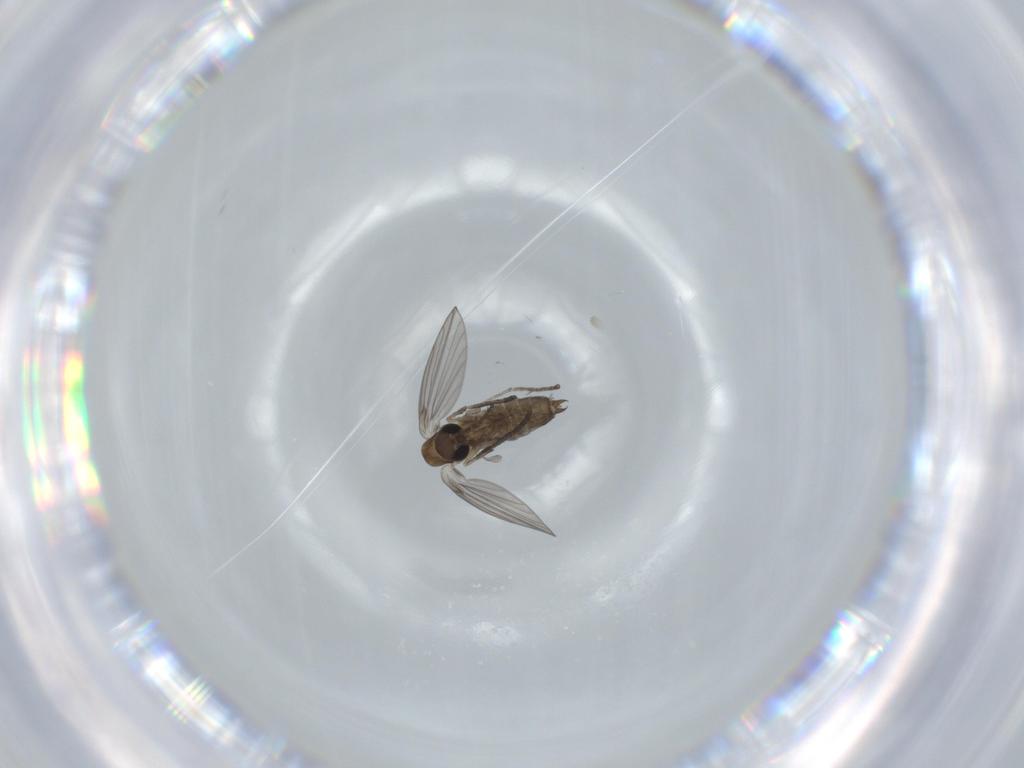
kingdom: Animalia
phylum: Arthropoda
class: Insecta
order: Diptera
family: Psychodidae
